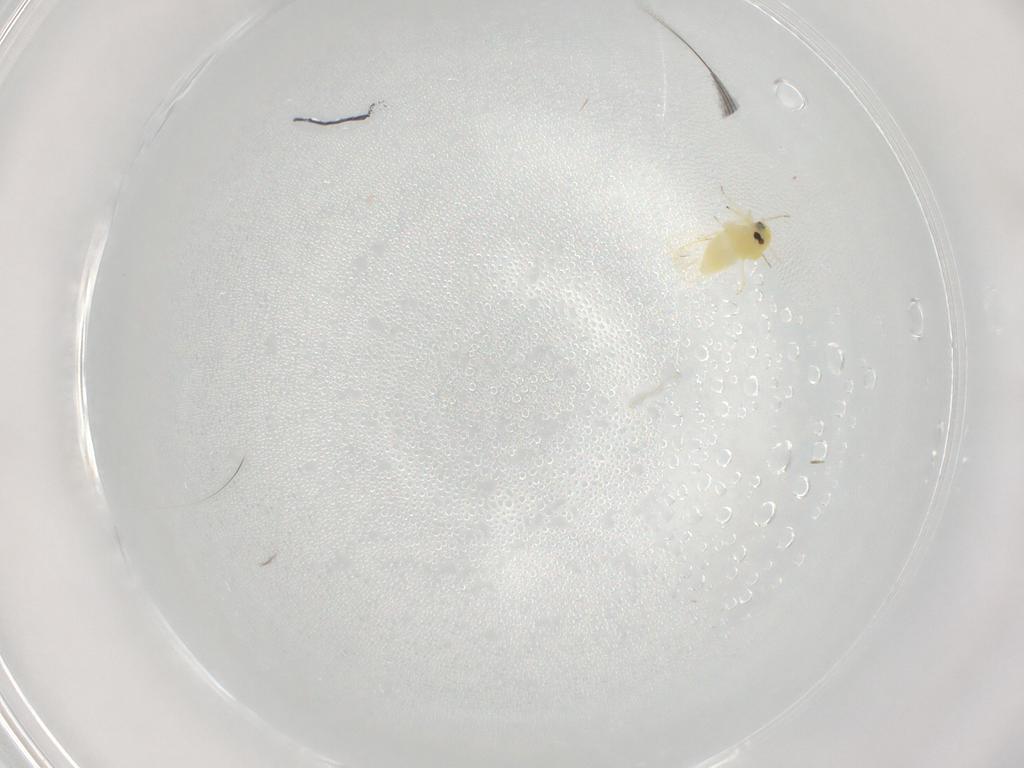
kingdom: Animalia
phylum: Arthropoda
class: Insecta
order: Hemiptera
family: Aleyrodidae
